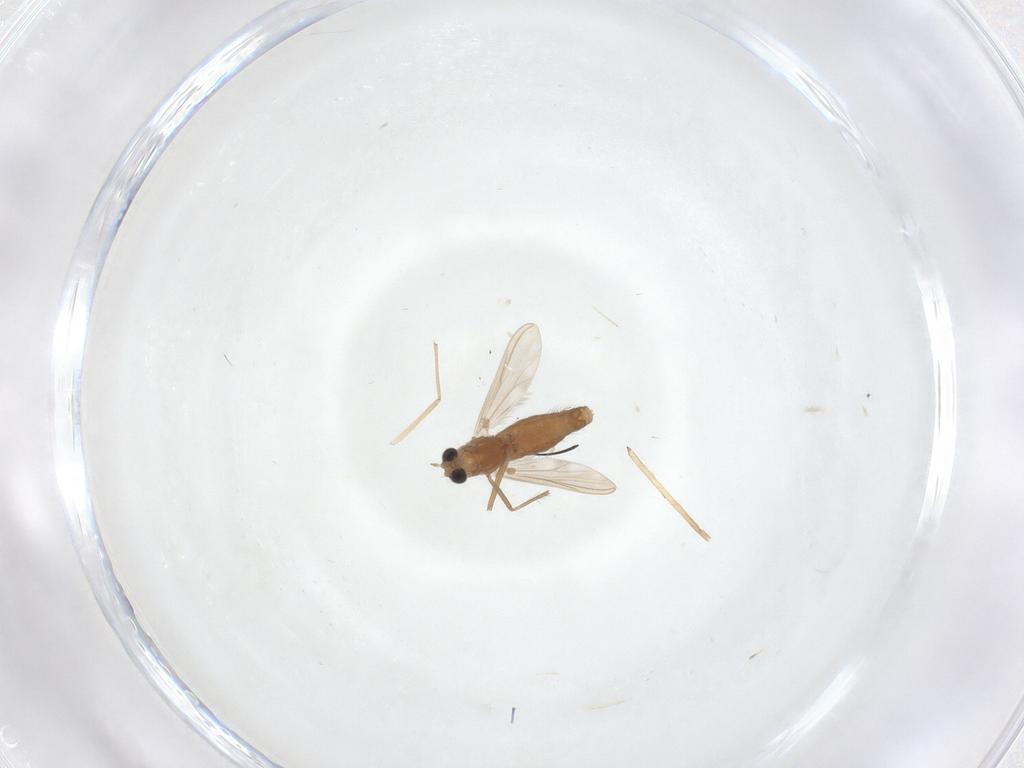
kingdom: Animalia
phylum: Arthropoda
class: Insecta
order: Diptera
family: Chironomidae
